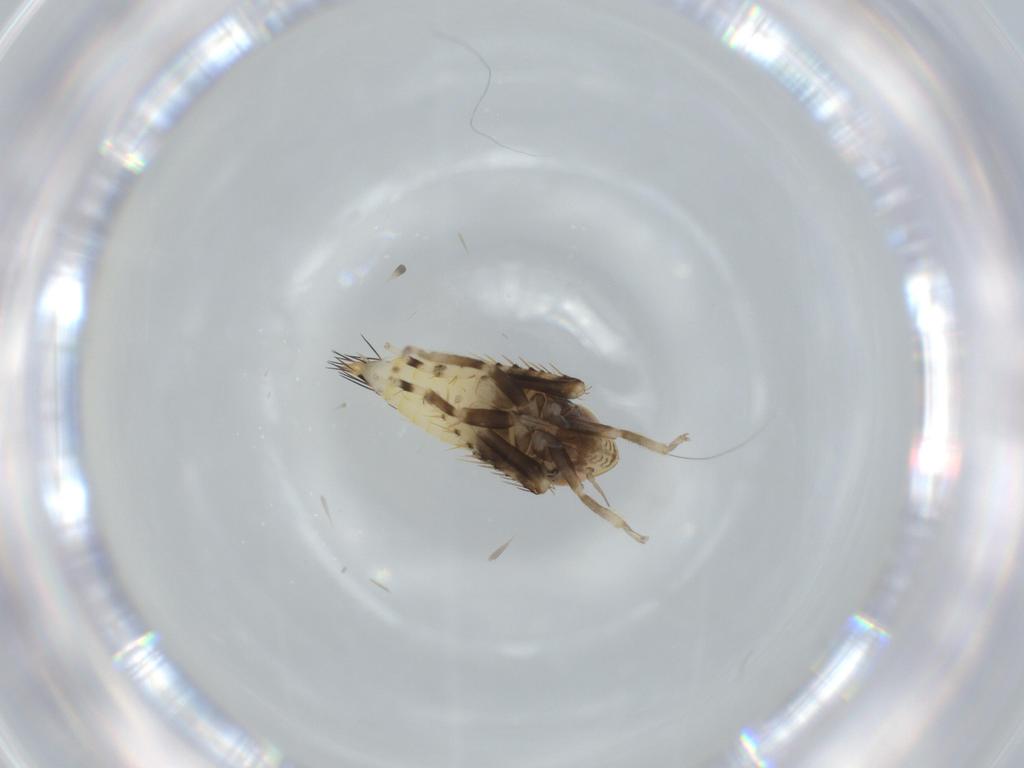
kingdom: Animalia
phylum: Arthropoda
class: Insecta
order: Hemiptera
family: Cicadellidae
